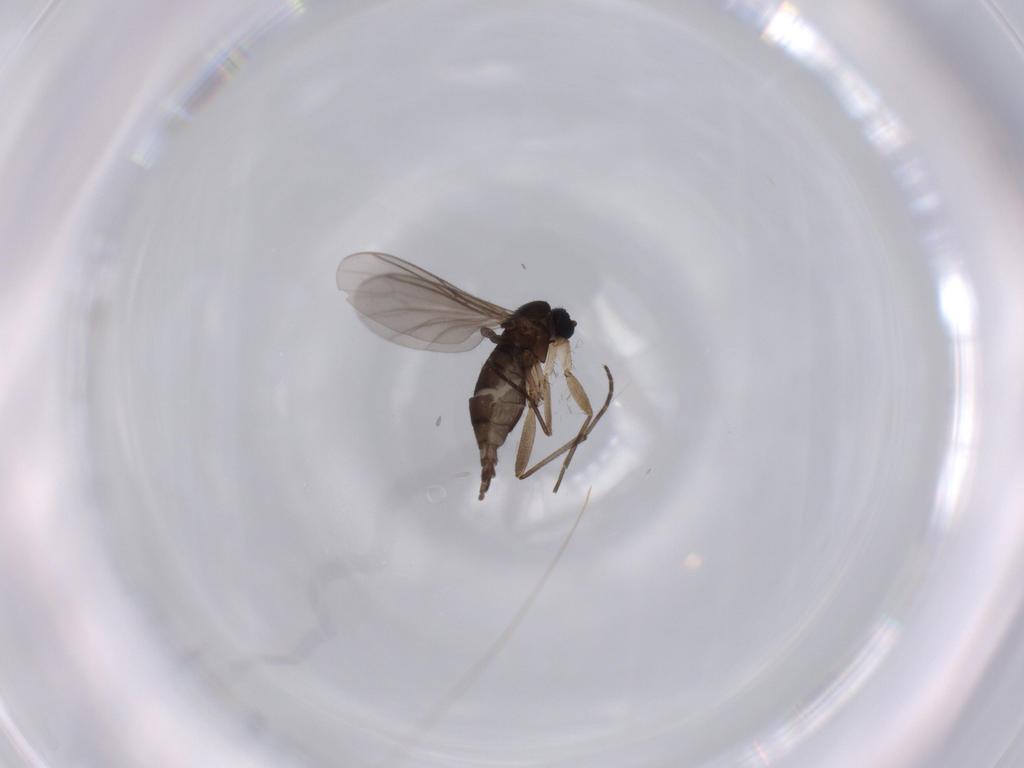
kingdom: Animalia
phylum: Arthropoda
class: Insecta
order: Diptera
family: Sciaridae
